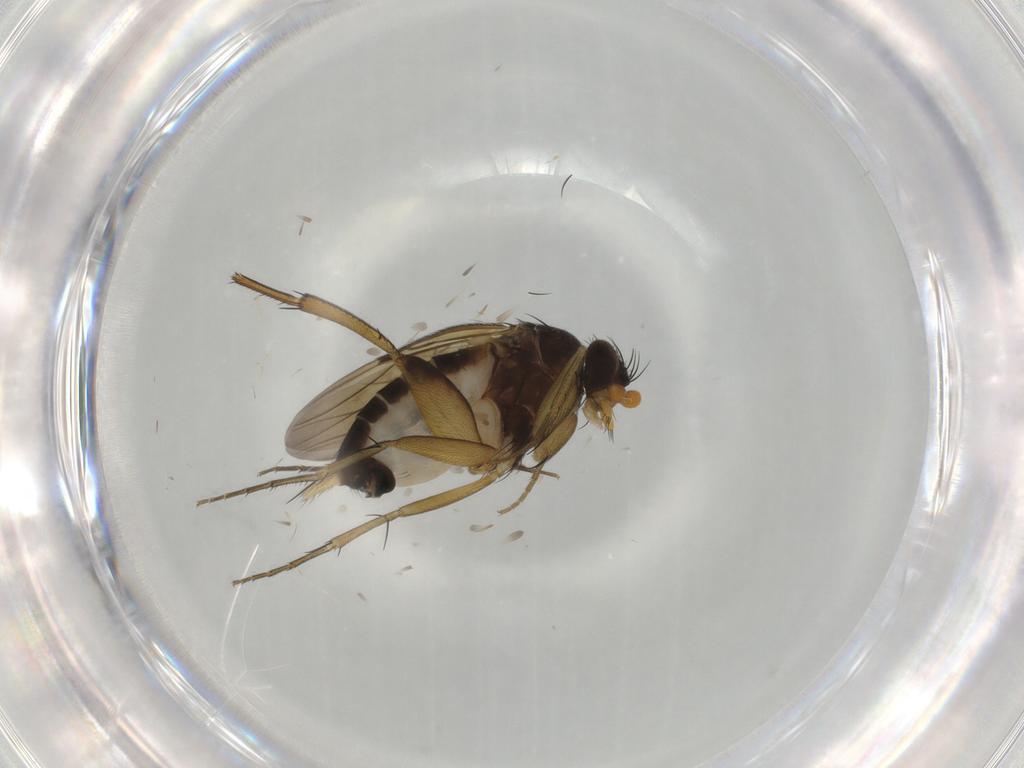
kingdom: Animalia
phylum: Arthropoda
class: Insecta
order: Diptera
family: Phoridae
